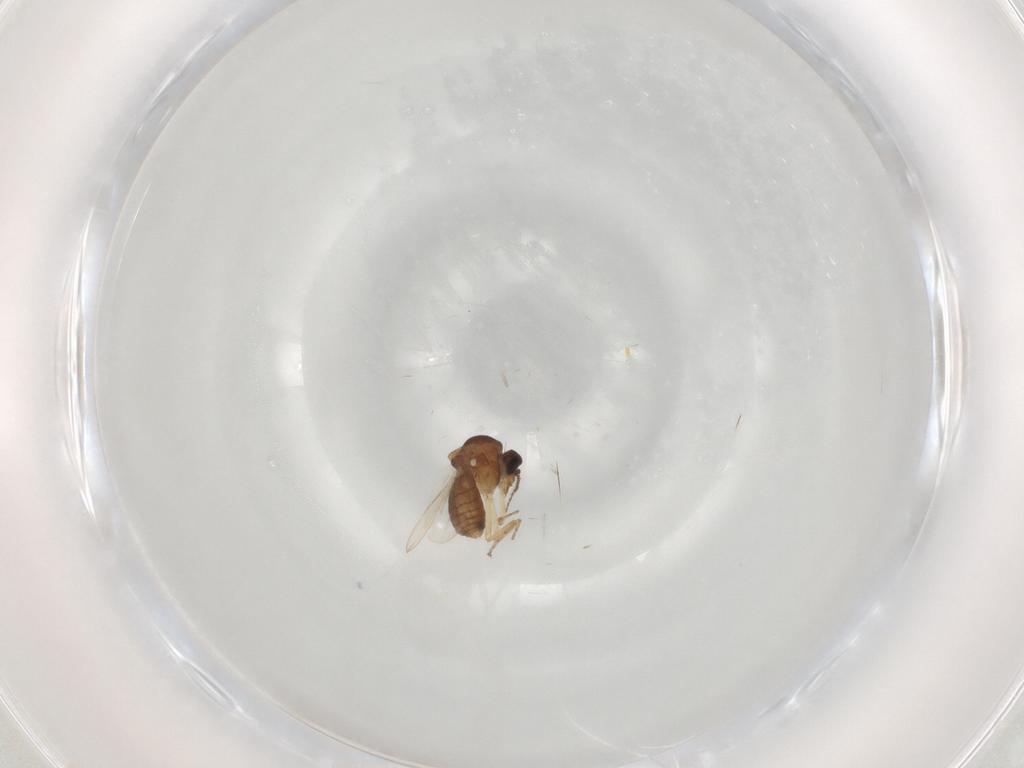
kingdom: Animalia
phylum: Arthropoda
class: Insecta
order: Diptera
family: Ceratopogonidae
